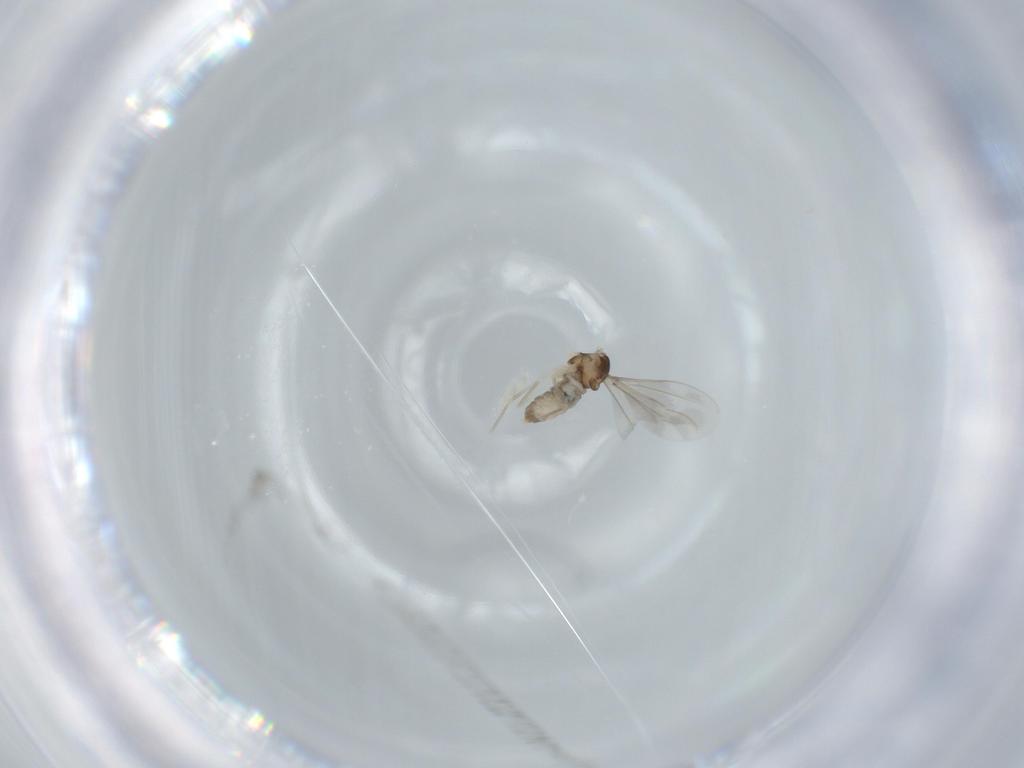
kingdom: Animalia
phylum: Arthropoda
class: Insecta
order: Diptera
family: Cecidomyiidae
